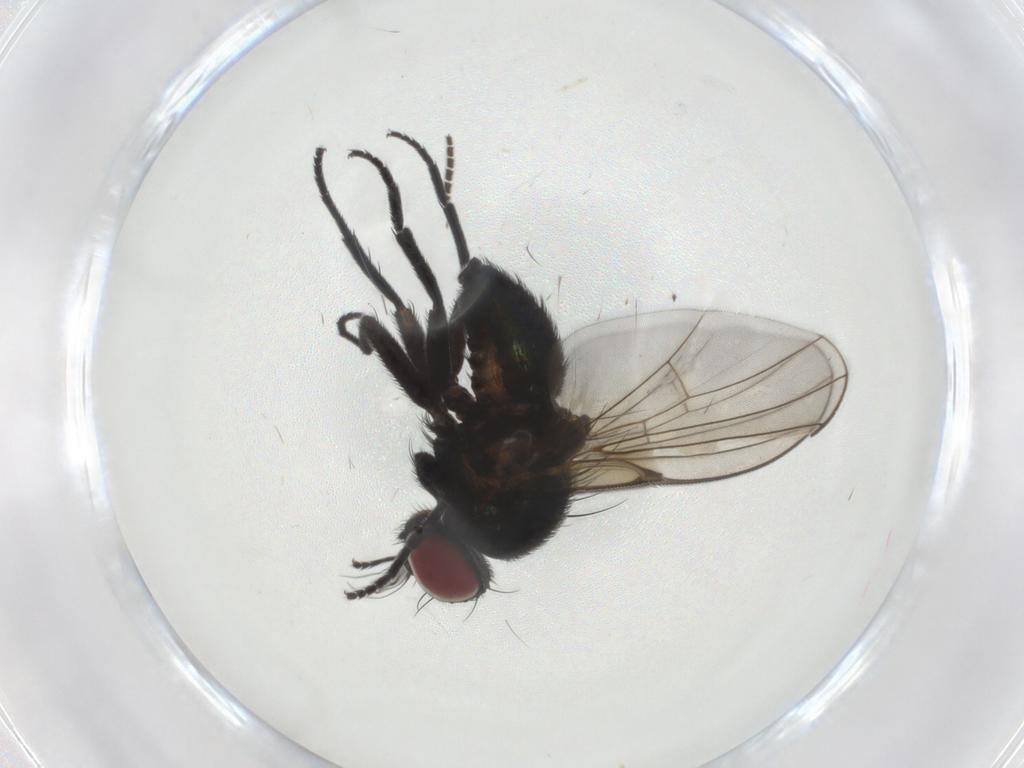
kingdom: Animalia
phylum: Arthropoda
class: Insecta
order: Diptera
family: Agromyzidae
